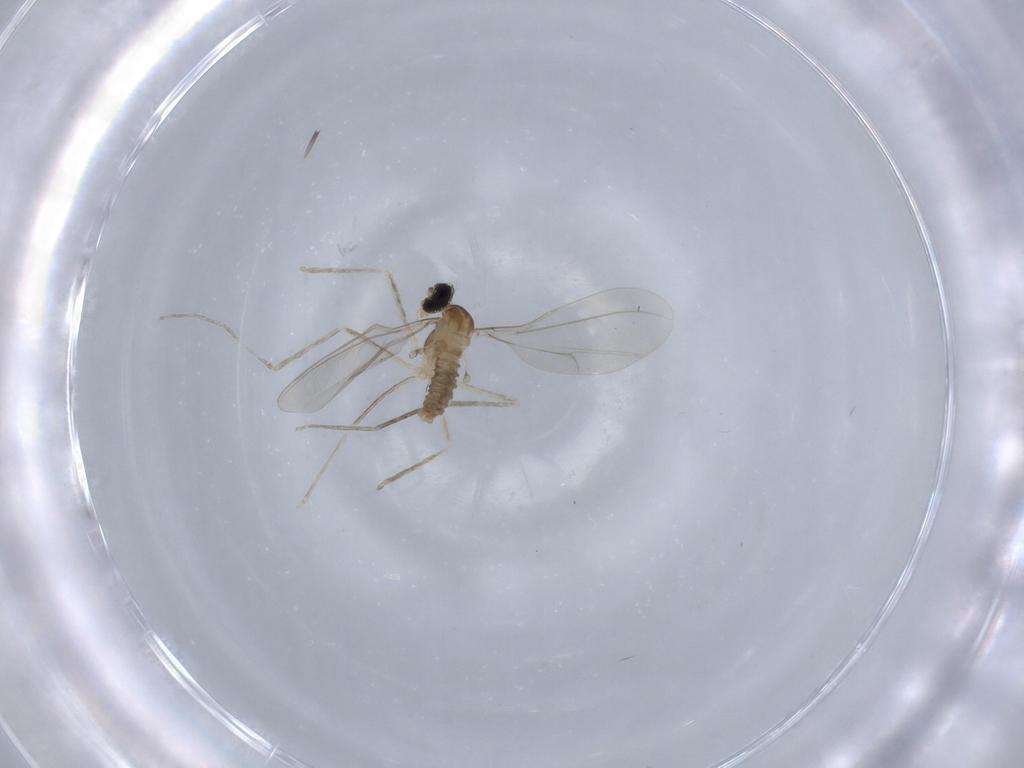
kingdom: Animalia
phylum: Arthropoda
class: Insecta
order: Diptera
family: Cecidomyiidae
